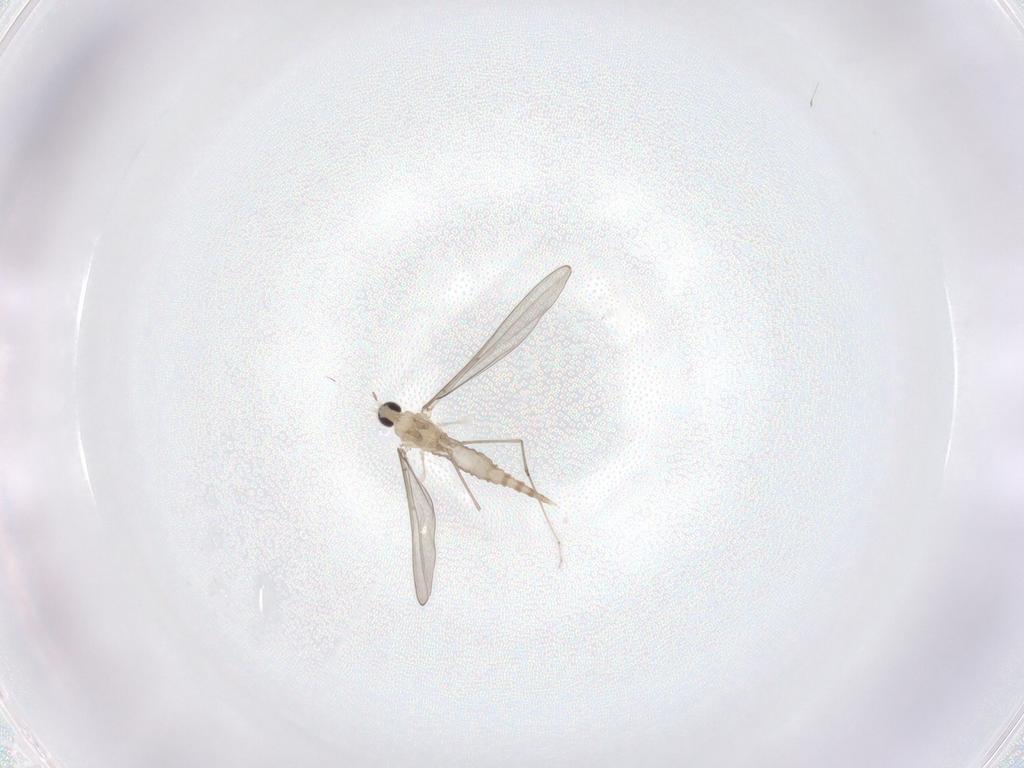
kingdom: Animalia
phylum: Arthropoda
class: Insecta
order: Diptera
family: Cecidomyiidae
